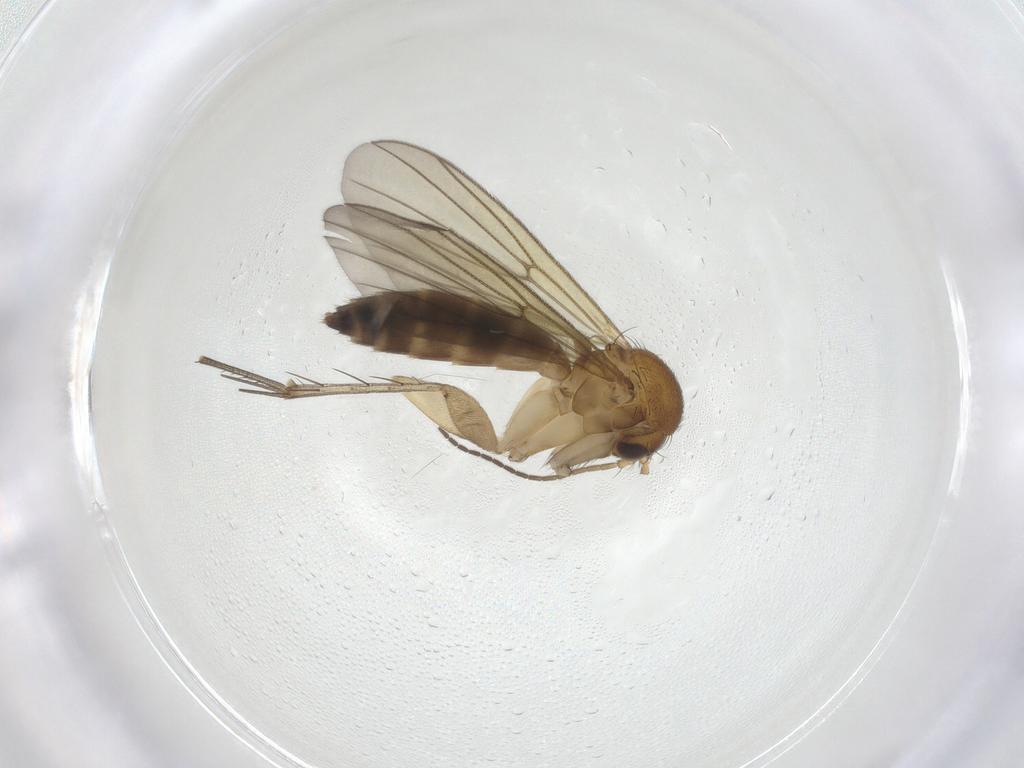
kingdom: Animalia
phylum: Arthropoda
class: Insecta
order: Diptera
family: Mycetophilidae
